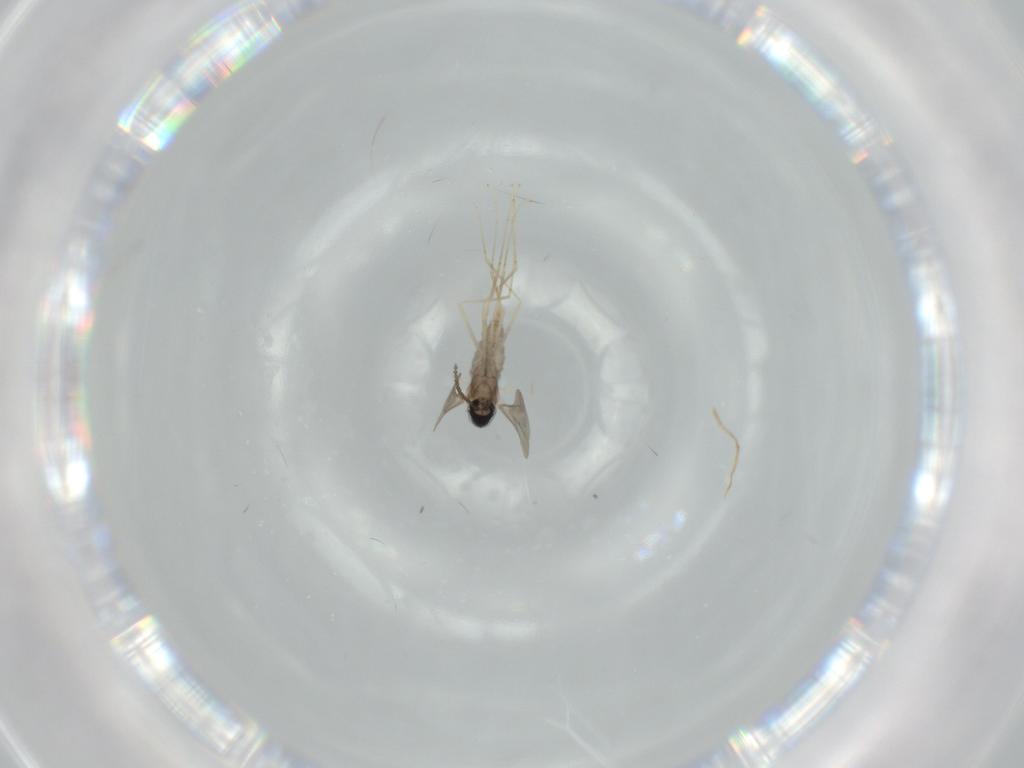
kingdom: Animalia
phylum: Arthropoda
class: Insecta
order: Diptera
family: Cecidomyiidae
